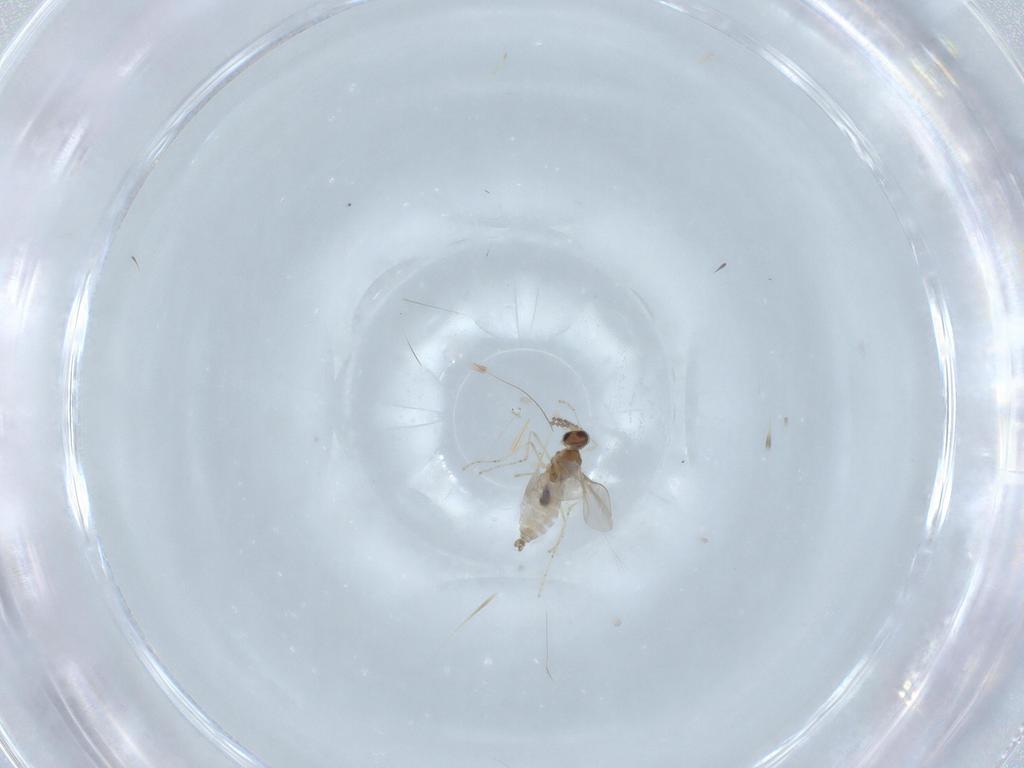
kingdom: Animalia
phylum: Arthropoda
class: Insecta
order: Diptera
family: Cecidomyiidae
